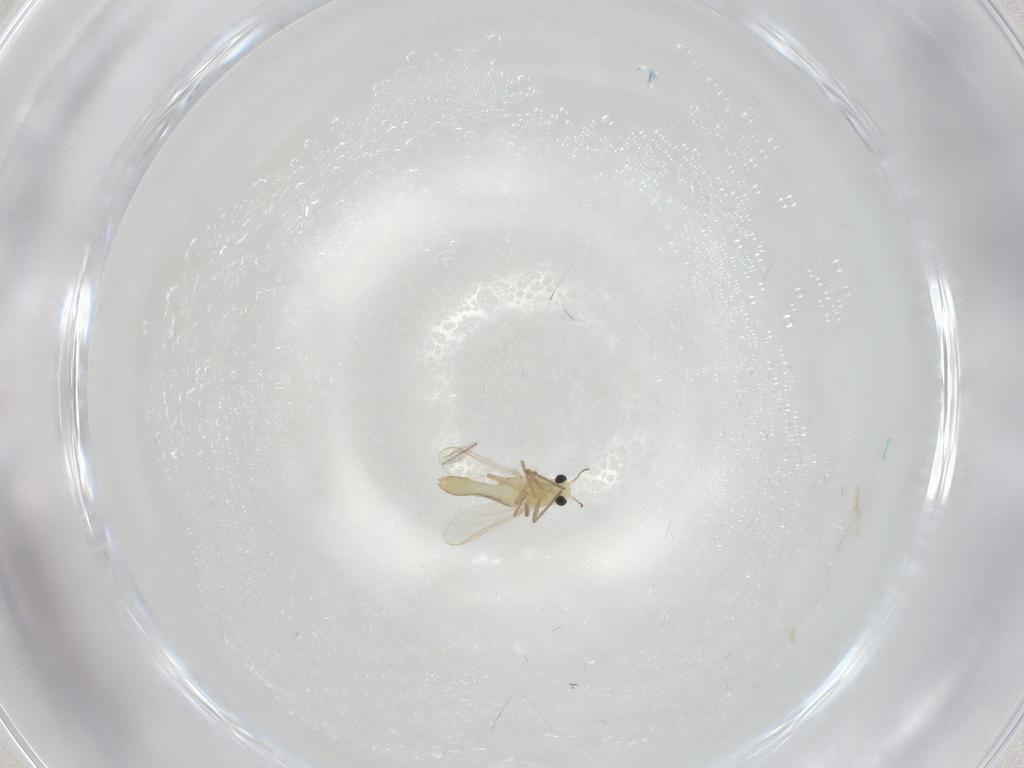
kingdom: Animalia
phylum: Arthropoda
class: Insecta
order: Diptera
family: Chironomidae
